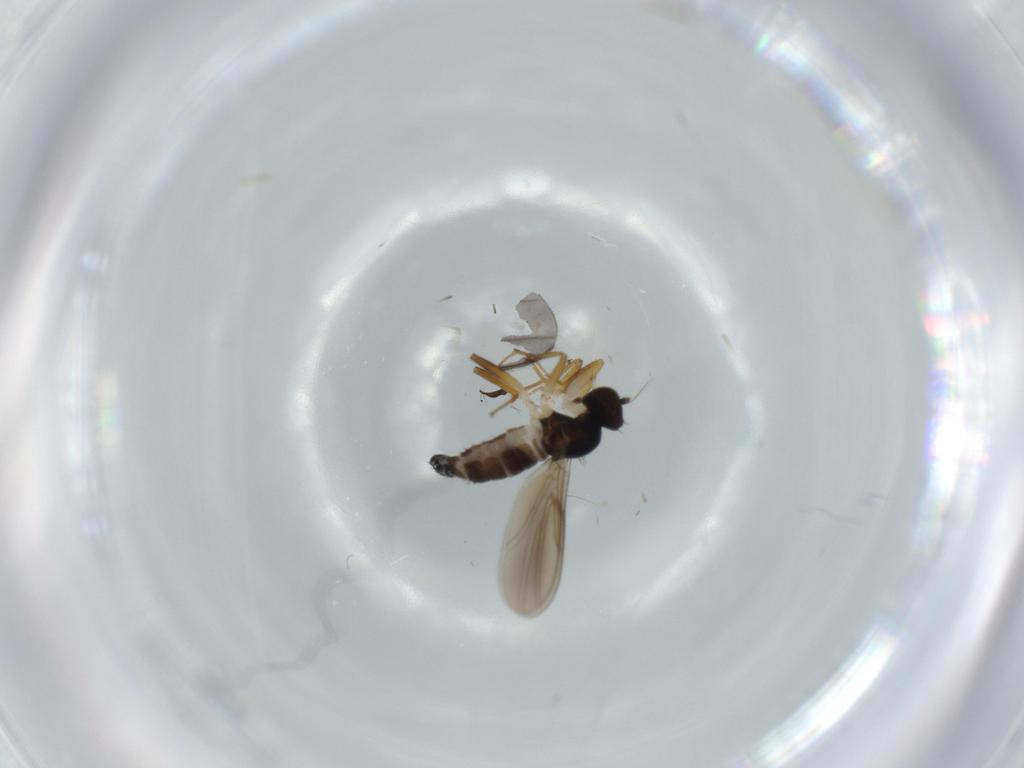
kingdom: Animalia
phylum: Arthropoda
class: Insecta
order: Diptera
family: Hybotidae
